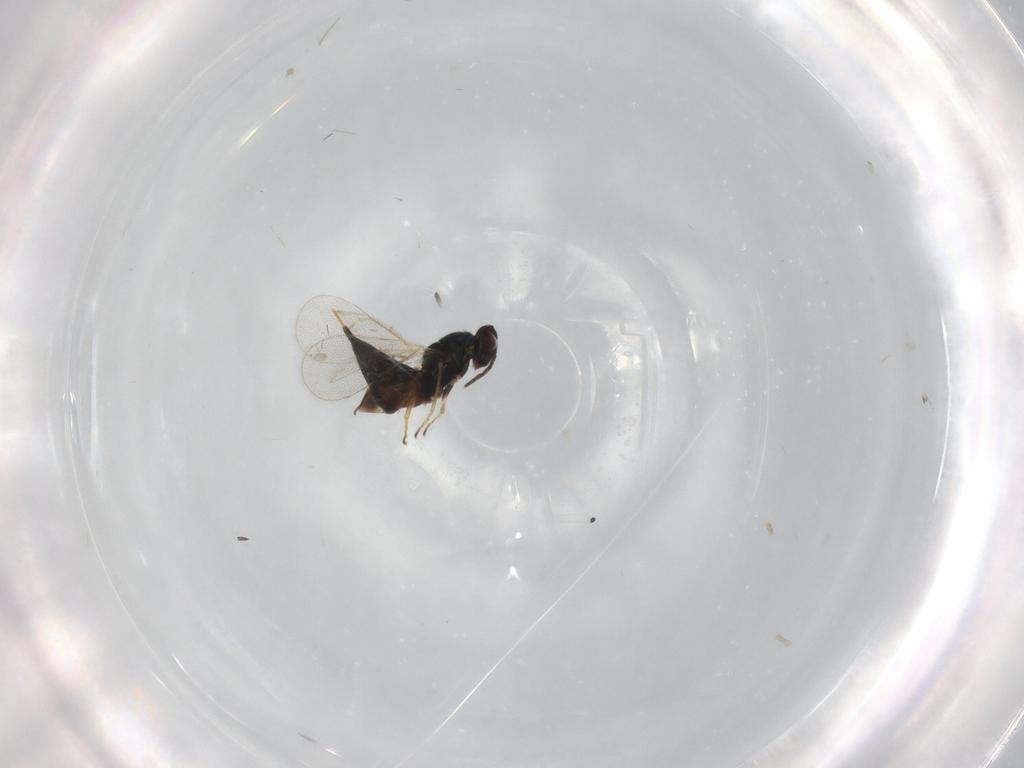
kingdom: Animalia
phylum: Arthropoda
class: Insecta
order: Hymenoptera
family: Eulophidae
